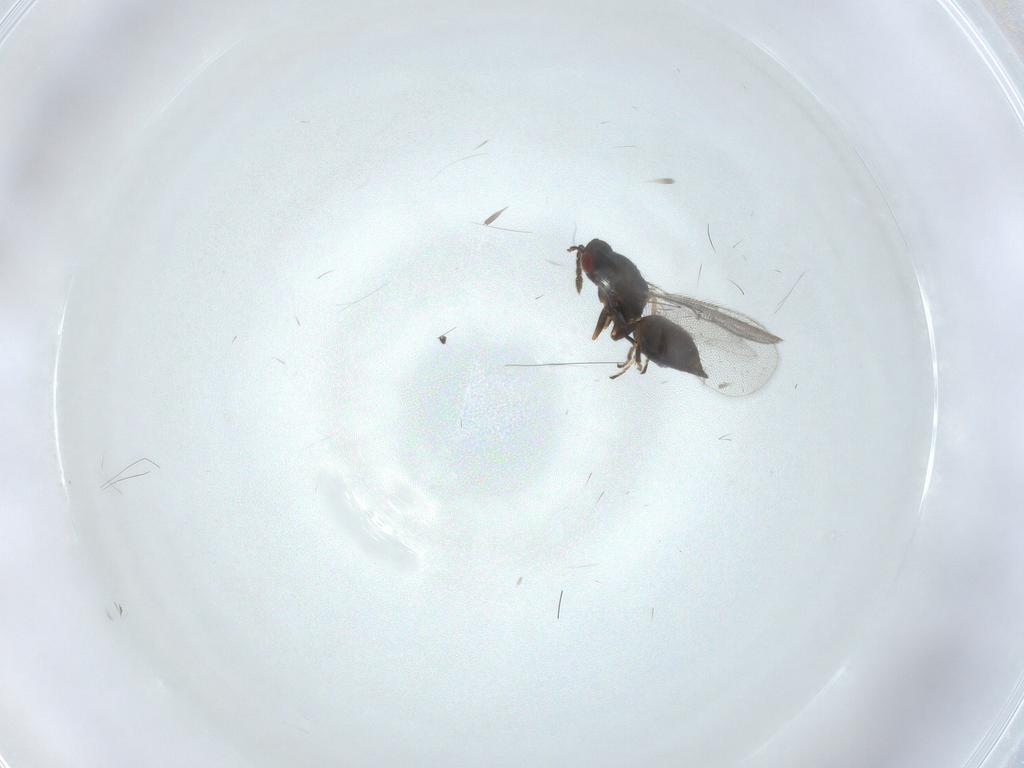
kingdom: Animalia
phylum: Arthropoda
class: Insecta
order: Hymenoptera
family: Eulophidae
